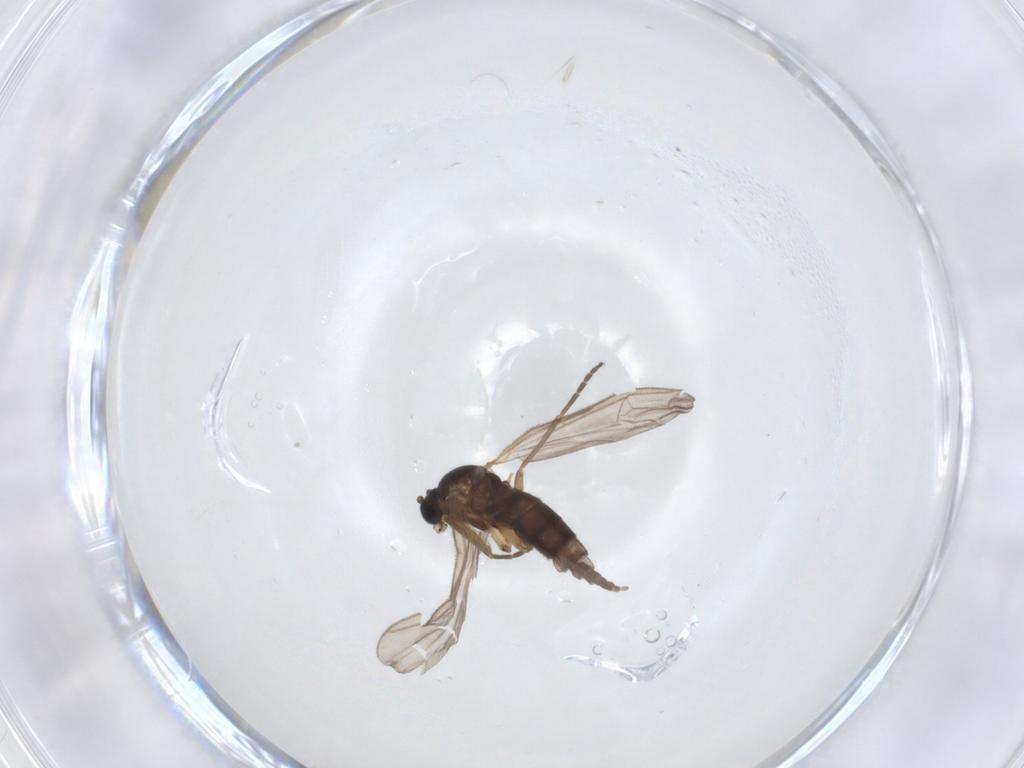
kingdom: Animalia
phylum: Arthropoda
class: Insecta
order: Diptera
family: Sciaridae
